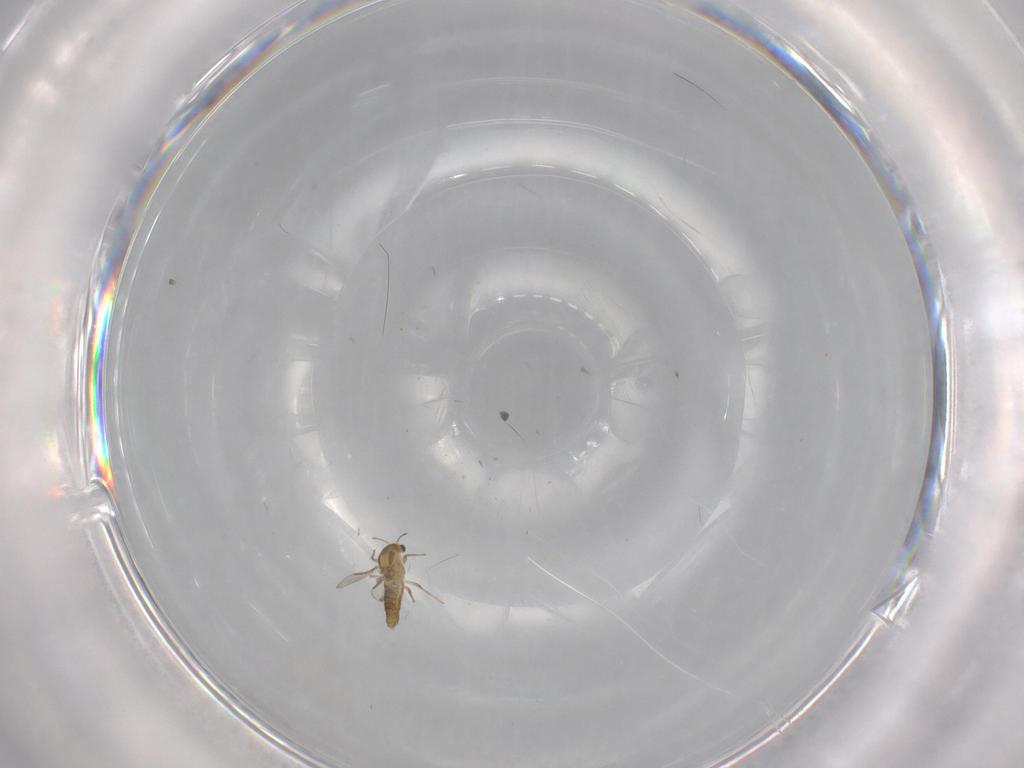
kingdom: Animalia
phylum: Arthropoda
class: Insecta
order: Diptera
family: Chironomidae
